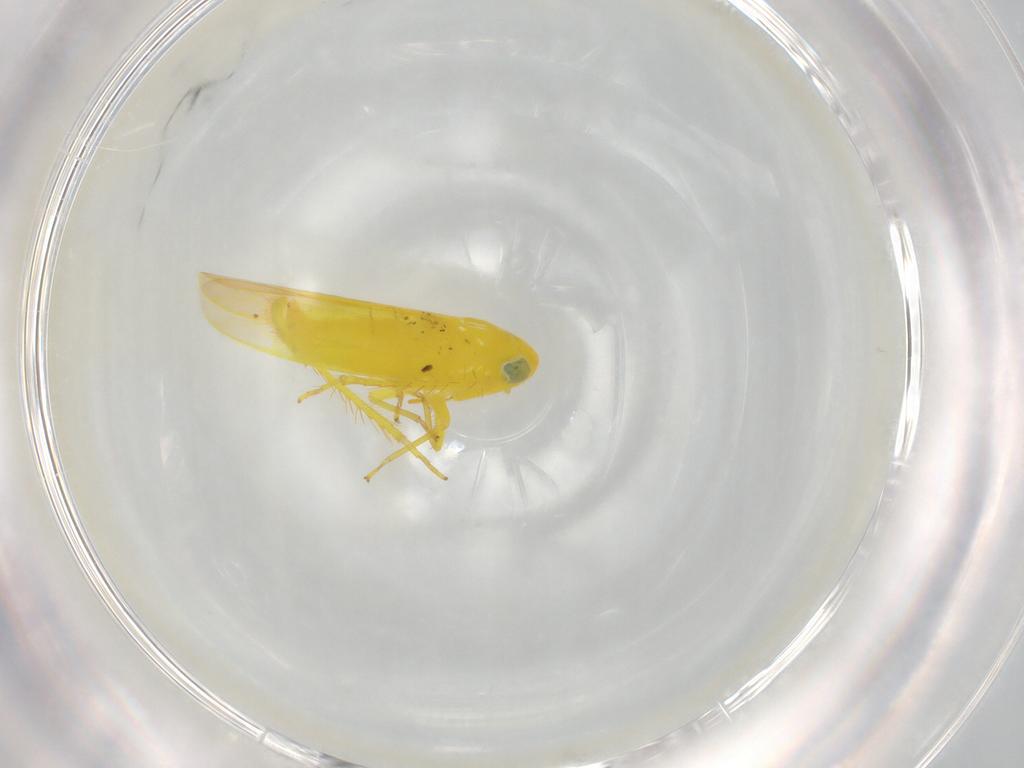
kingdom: Animalia
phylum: Arthropoda
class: Insecta
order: Hemiptera
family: Cicadellidae
